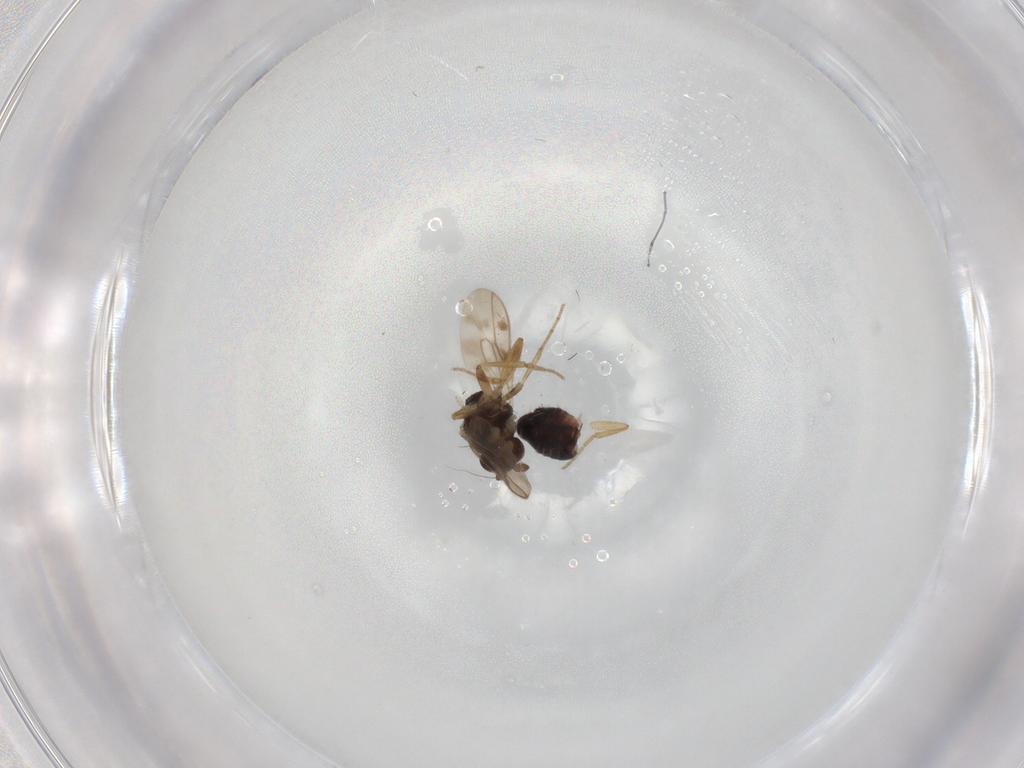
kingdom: Animalia
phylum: Arthropoda
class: Insecta
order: Diptera
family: Sphaeroceridae
